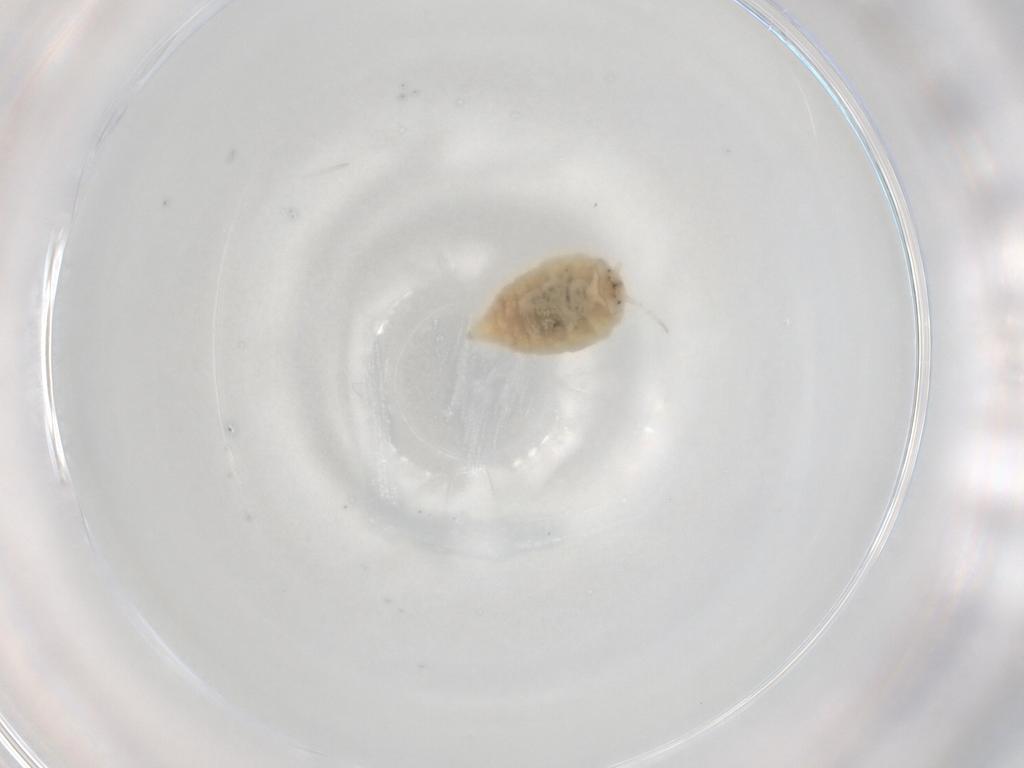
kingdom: Animalia
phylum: Arthropoda
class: Insecta
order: Neuroptera
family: Coniopterygidae
